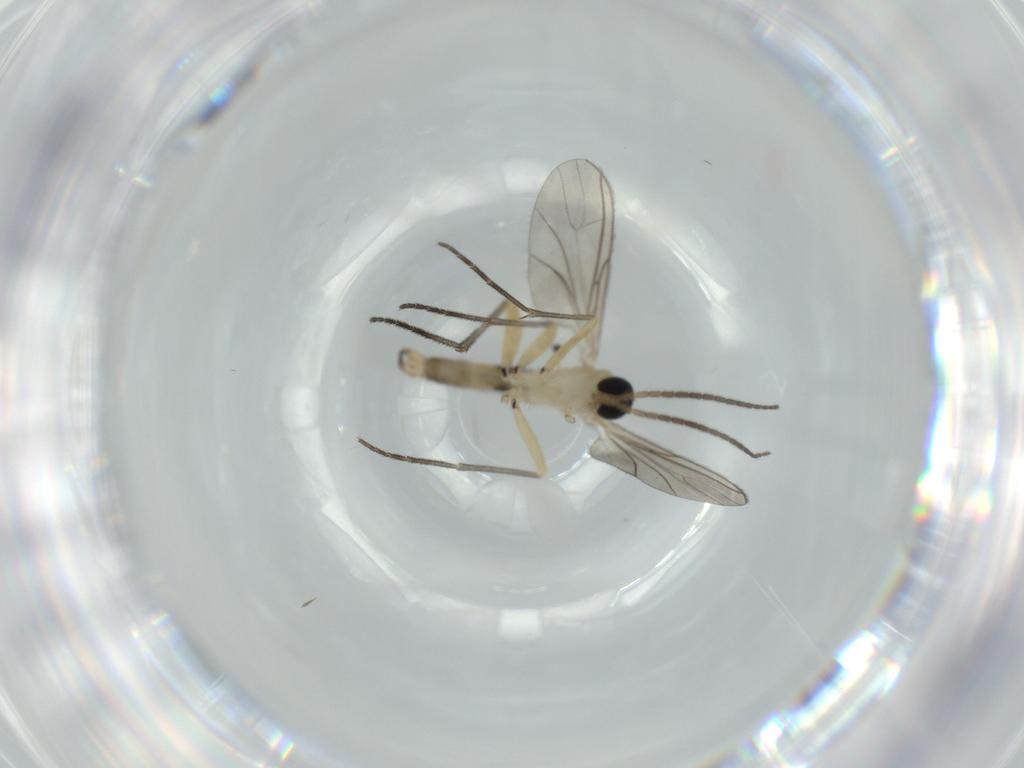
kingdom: Animalia
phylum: Arthropoda
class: Insecta
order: Diptera
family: Sciaridae
